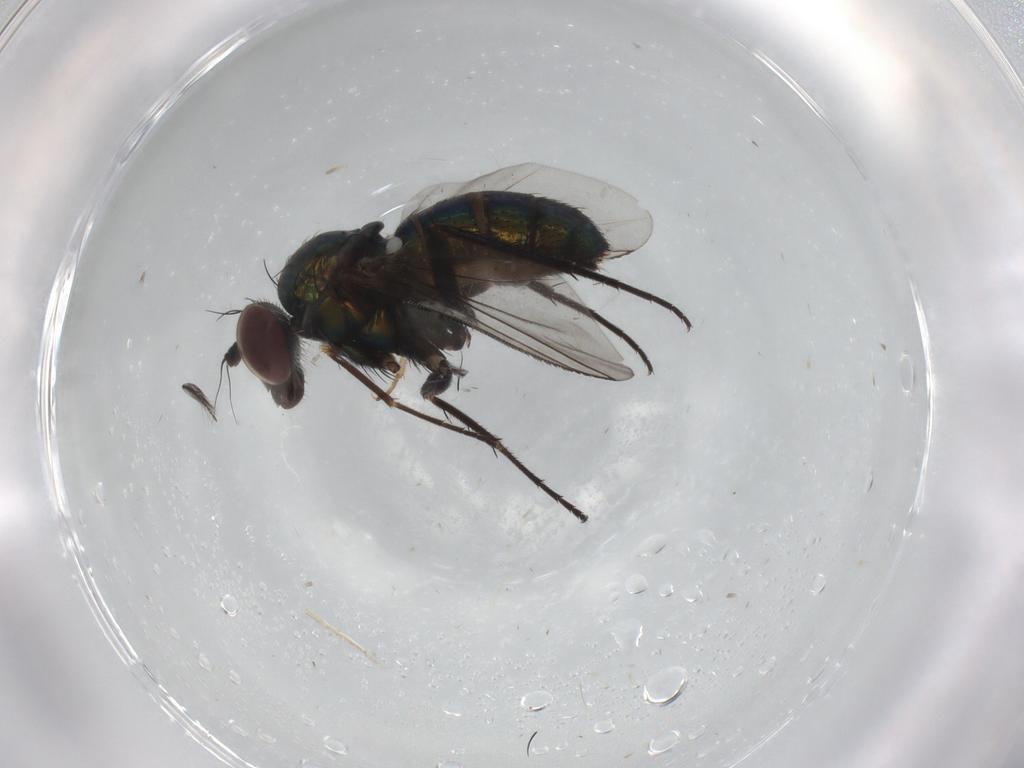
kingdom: Animalia
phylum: Arthropoda
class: Insecta
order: Diptera
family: Dolichopodidae
